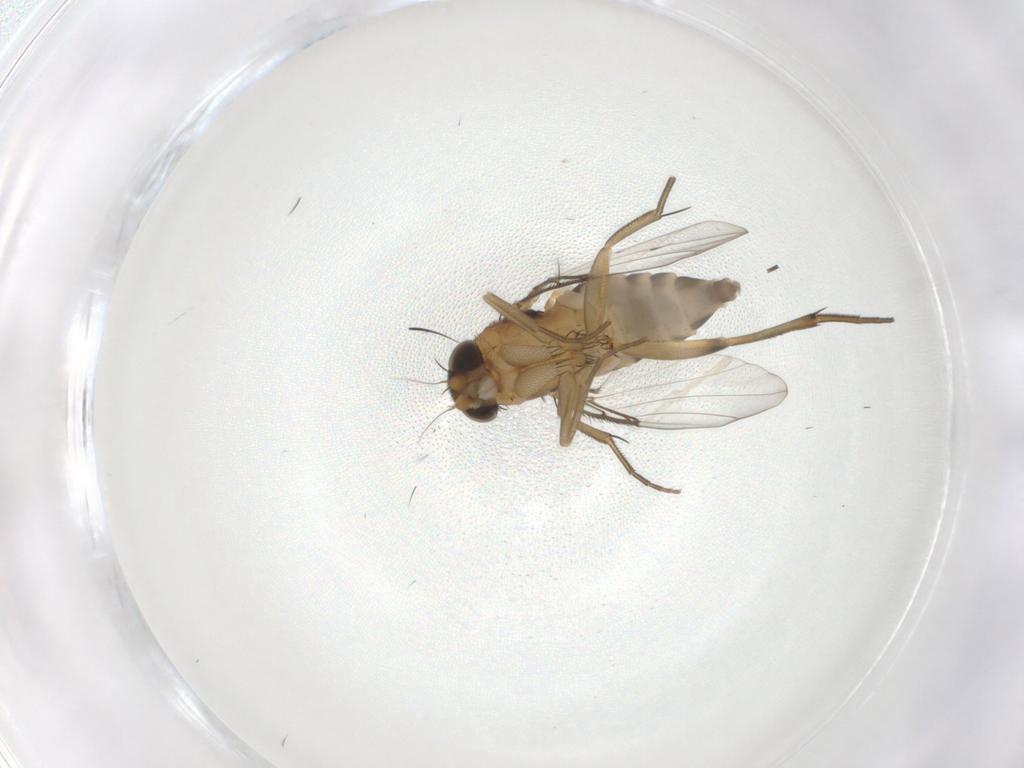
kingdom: Animalia
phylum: Arthropoda
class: Insecta
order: Diptera
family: Phoridae
